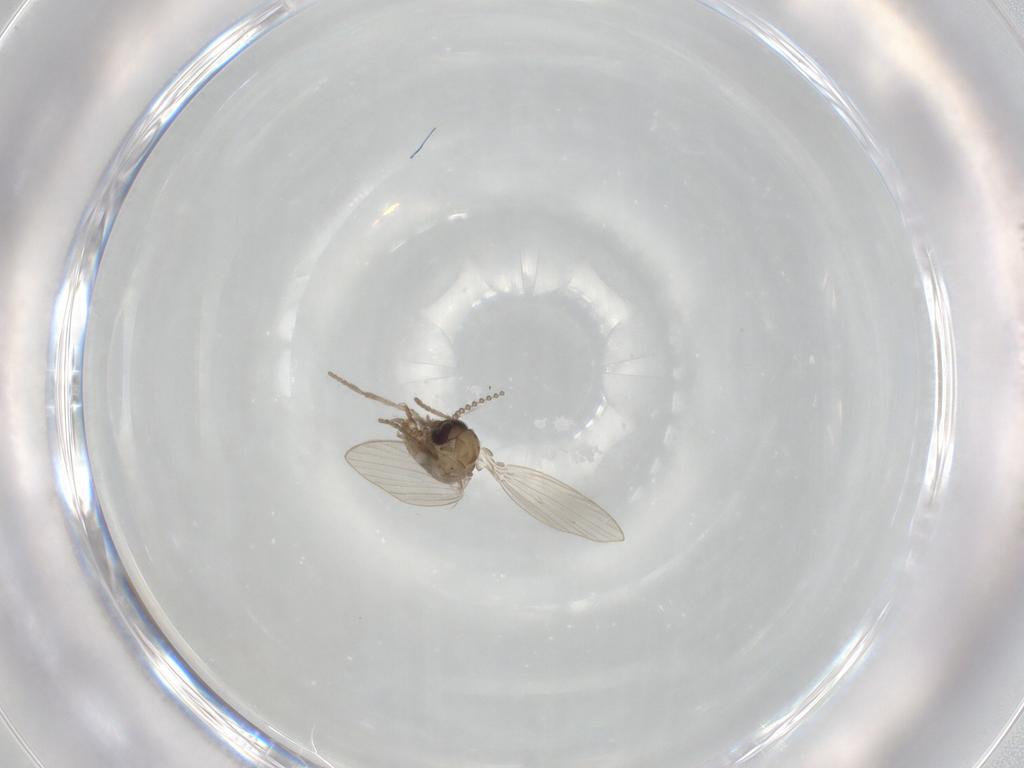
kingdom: Animalia
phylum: Arthropoda
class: Insecta
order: Diptera
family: Psychodidae
